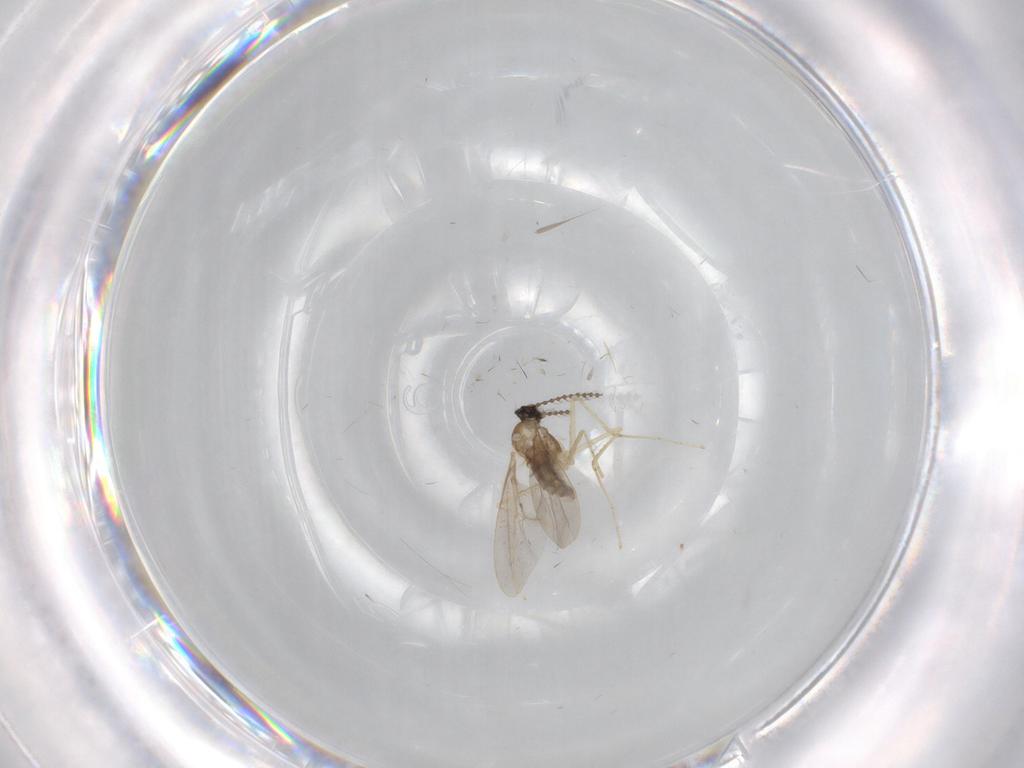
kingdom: Animalia
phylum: Arthropoda
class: Insecta
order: Diptera
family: Cecidomyiidae
